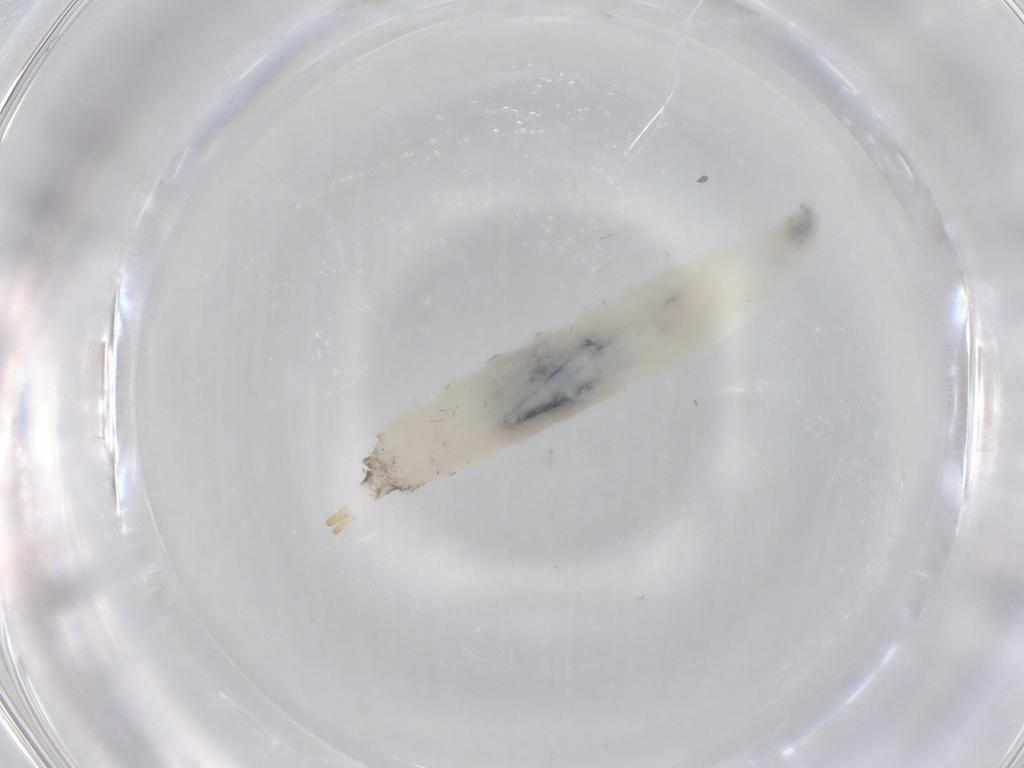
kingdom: Animalia
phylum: Arthropoda
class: Insecta
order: Diptera
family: Drosophilidae
